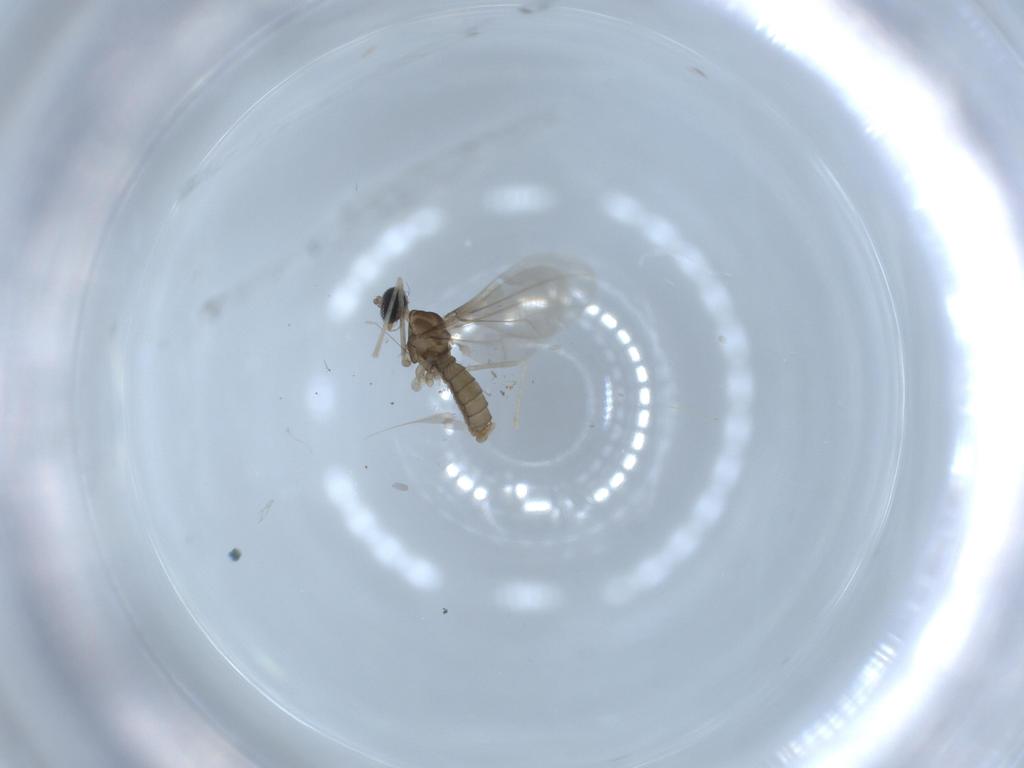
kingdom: Animalia
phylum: Arthropoda
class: Insecta
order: Diptera
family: Cecidomyiidae
